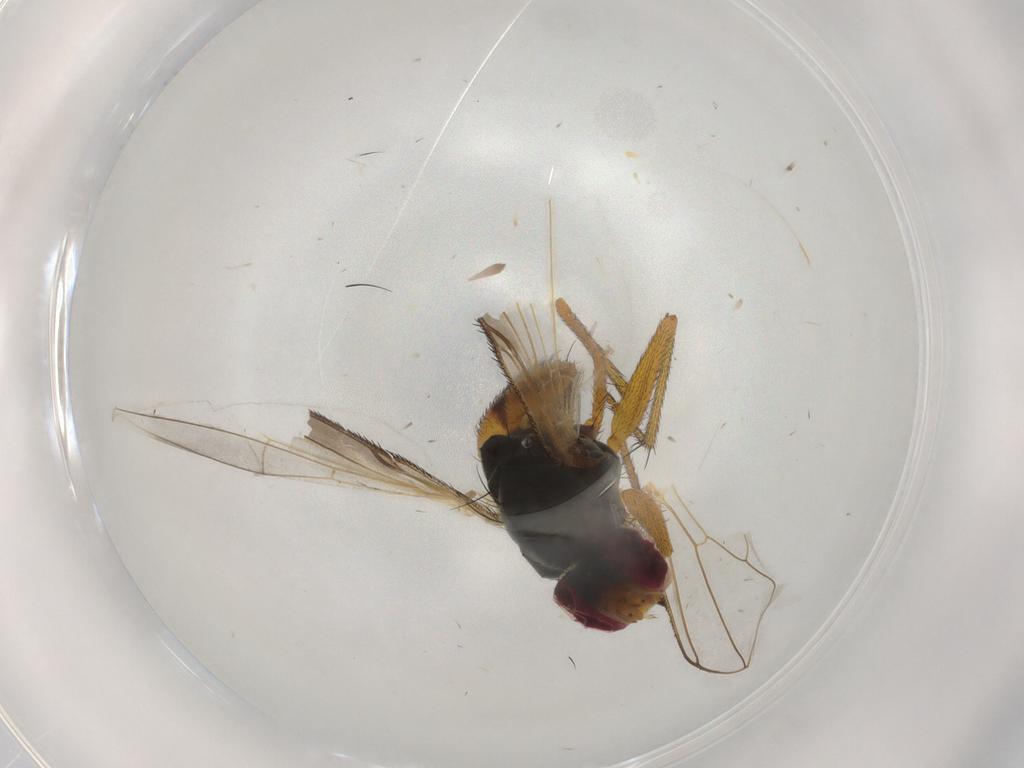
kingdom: Animalia
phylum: Arthropoda
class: Insecta
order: Diptera
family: Muscidae
